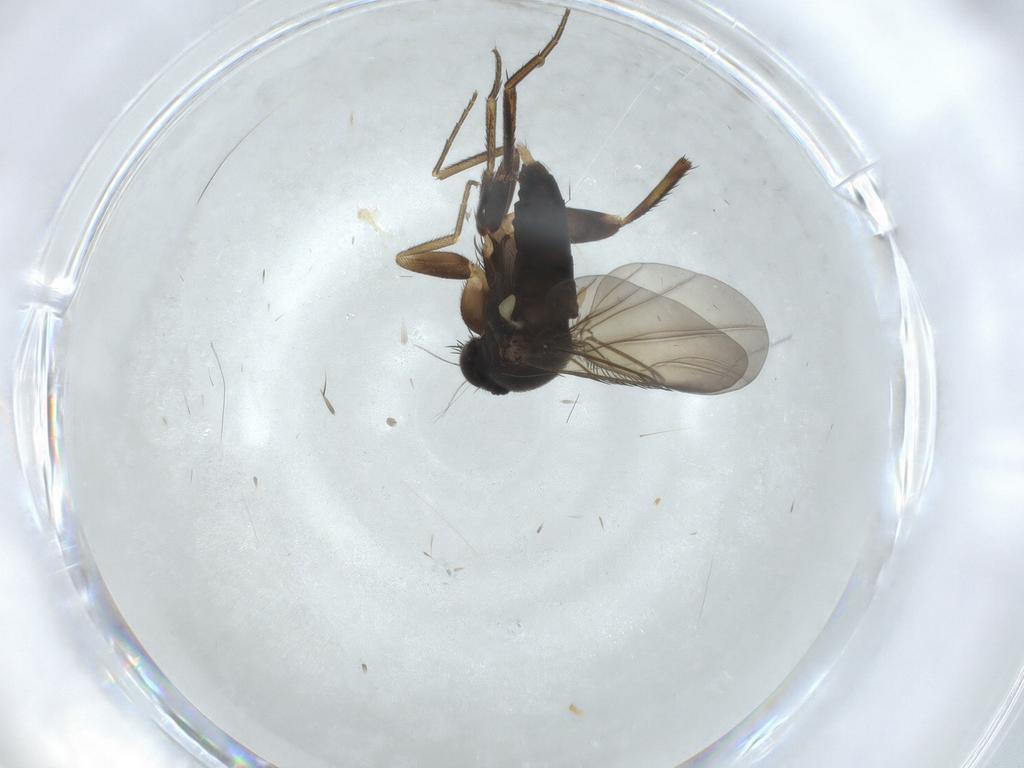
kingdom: Animalia
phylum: Arthropoda
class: Insecta
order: Diptera
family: Phoridae
